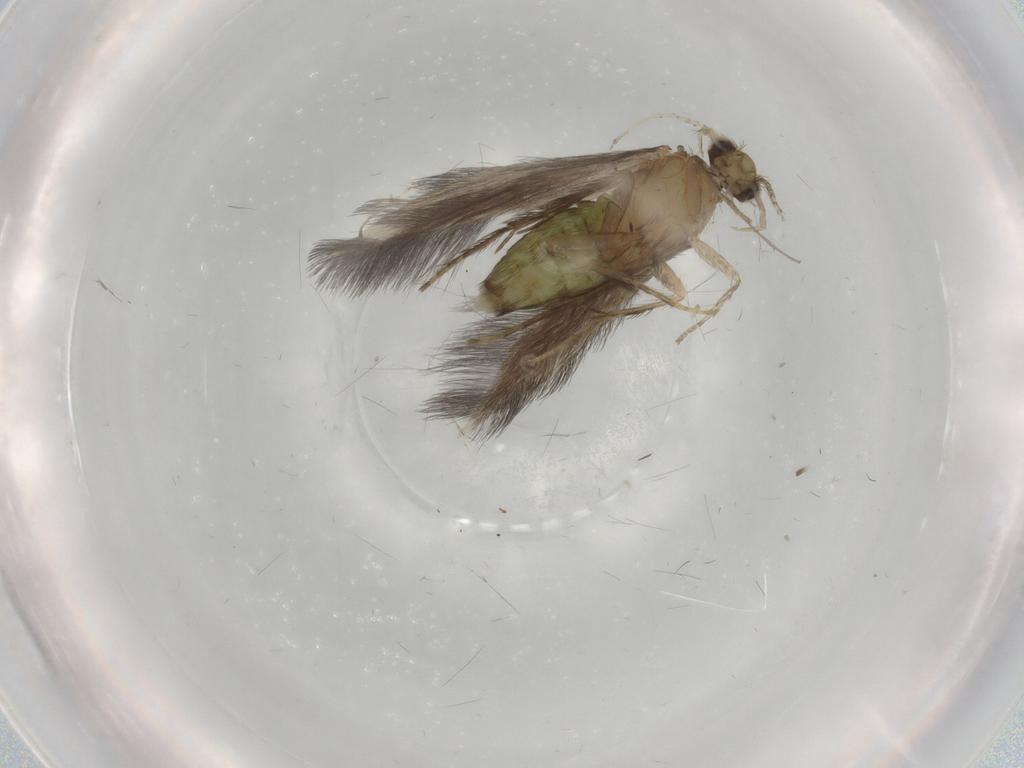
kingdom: Animalia
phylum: Arthropoda
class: Insecta
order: Trichoptera
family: Hydroptilidae
